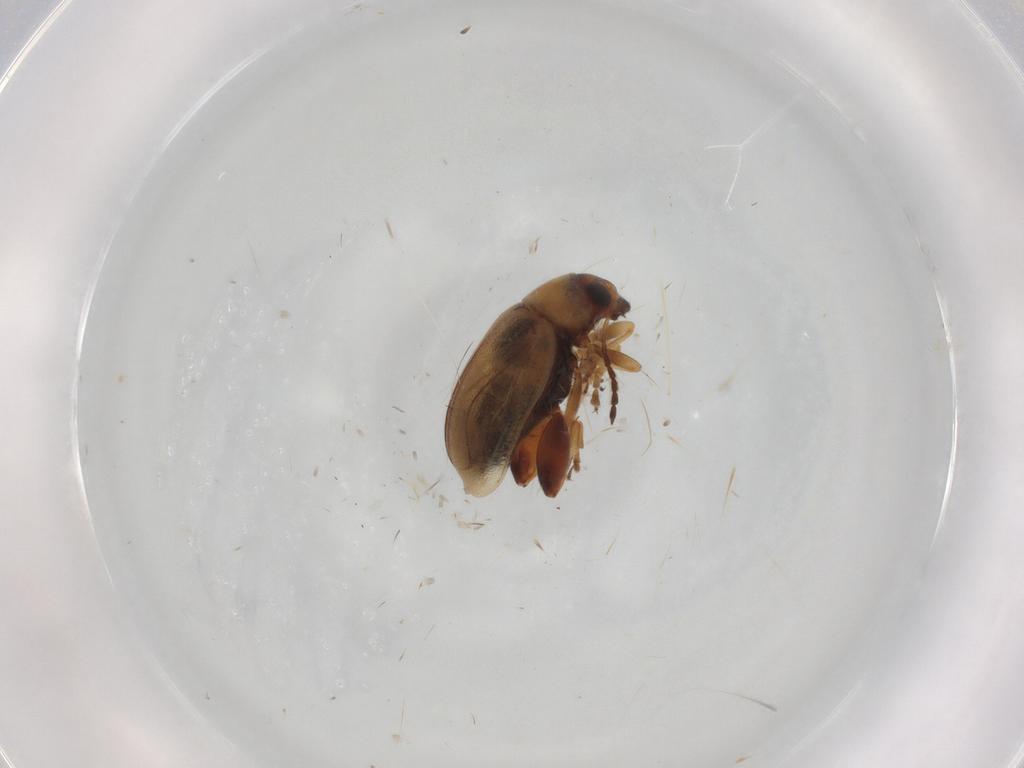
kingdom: Animalia
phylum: Arthropoda
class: Insecta
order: Coleoptera
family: Chrysomelidae
